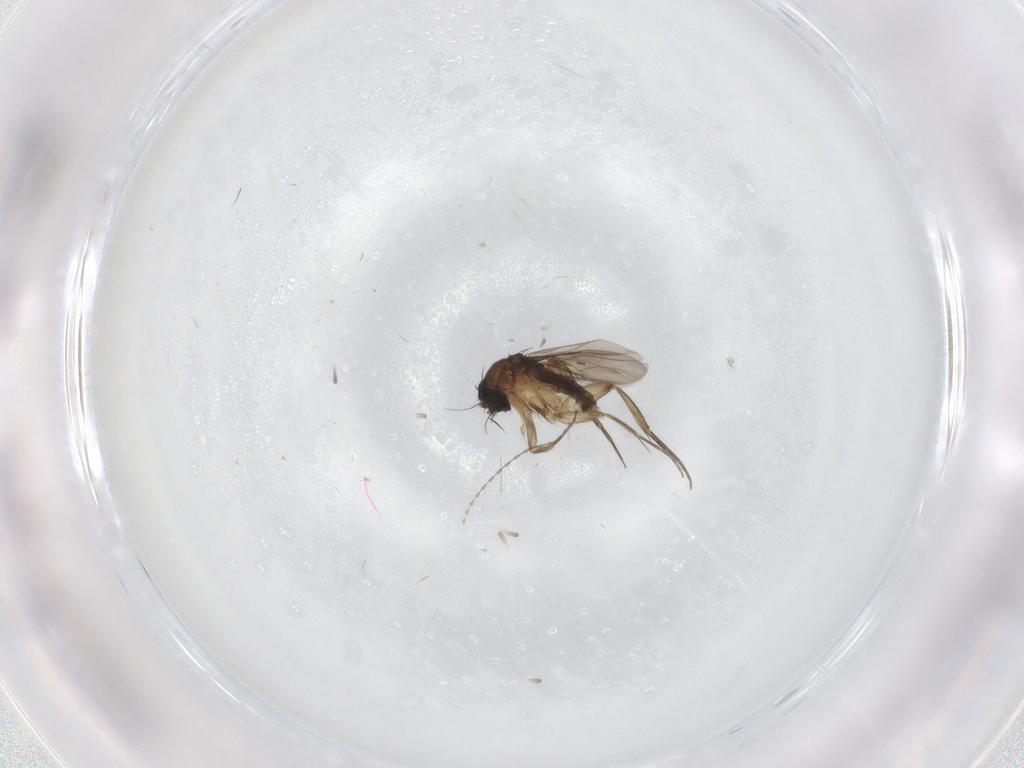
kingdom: Animalia
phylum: Arthropoda
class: Insecta
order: Diptera
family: Phoridae
